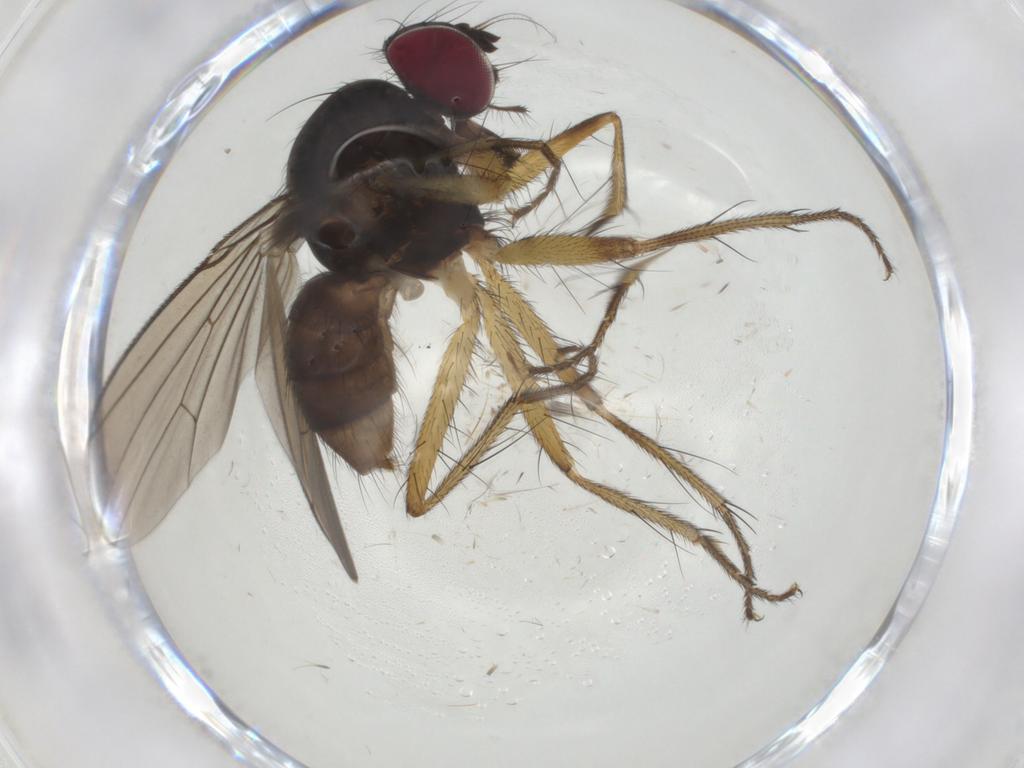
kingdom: Animalia
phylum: Arthropoda
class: Insecta
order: Diptera
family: Anthomyiidae
